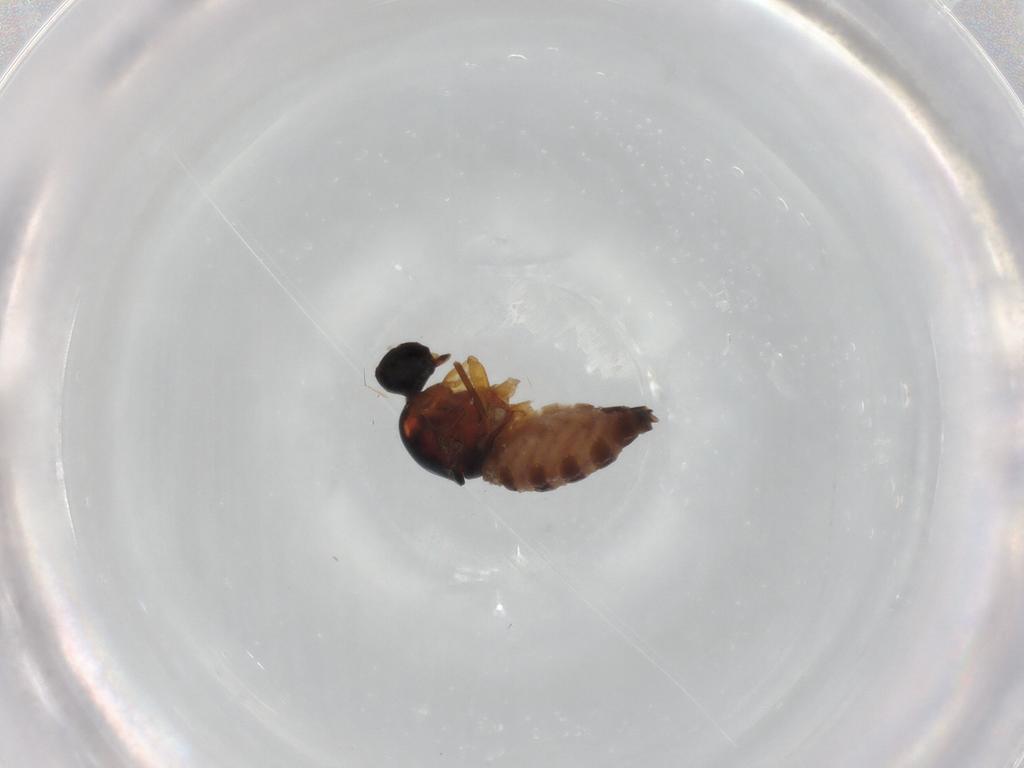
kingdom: Animalia
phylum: Arthropoda
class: Insecta
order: Diptera
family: Hybotidae
